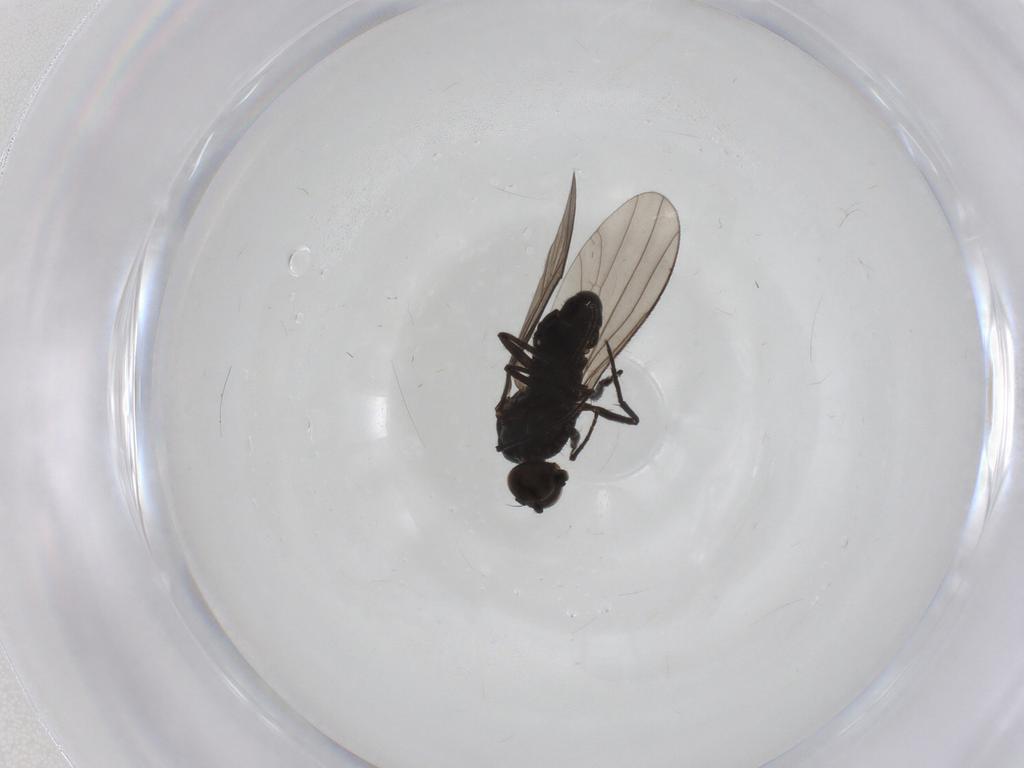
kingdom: Animalia
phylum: Arthropoda
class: Insecta
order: Diptera
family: Dolichopodidae
